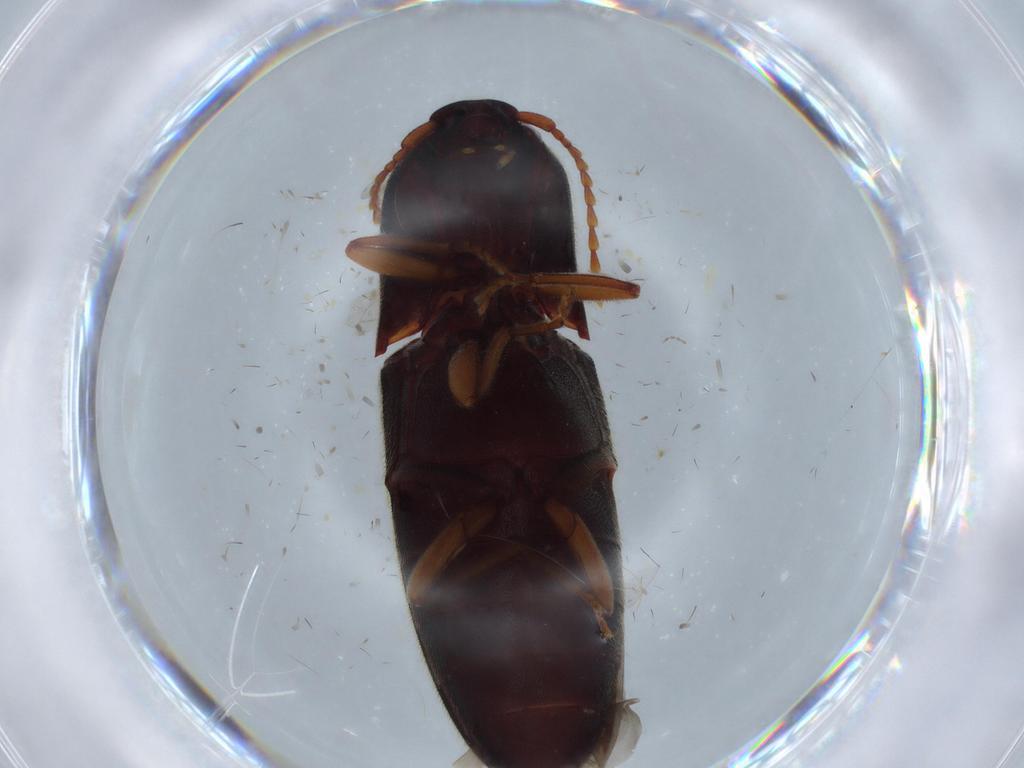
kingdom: Animalia
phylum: Arthropoda
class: Insecta
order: Coleoptera
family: Elateridae
